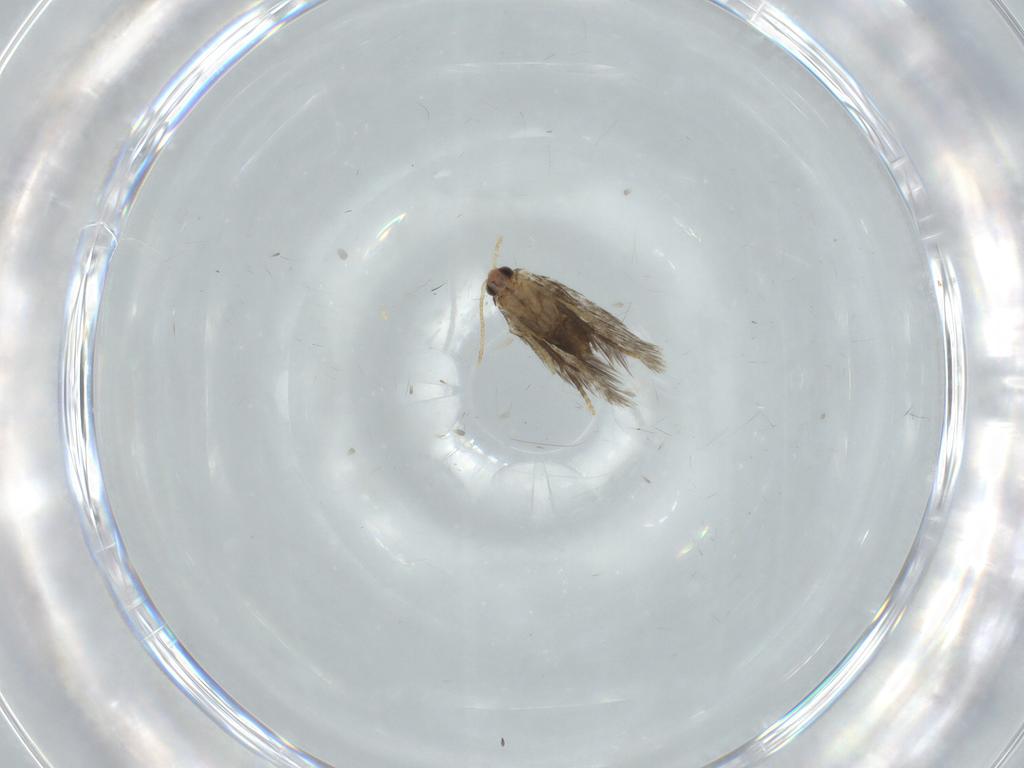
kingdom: Animalia
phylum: Arthropoda
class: Insecta
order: Lepidoptera
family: Copromorphidae
